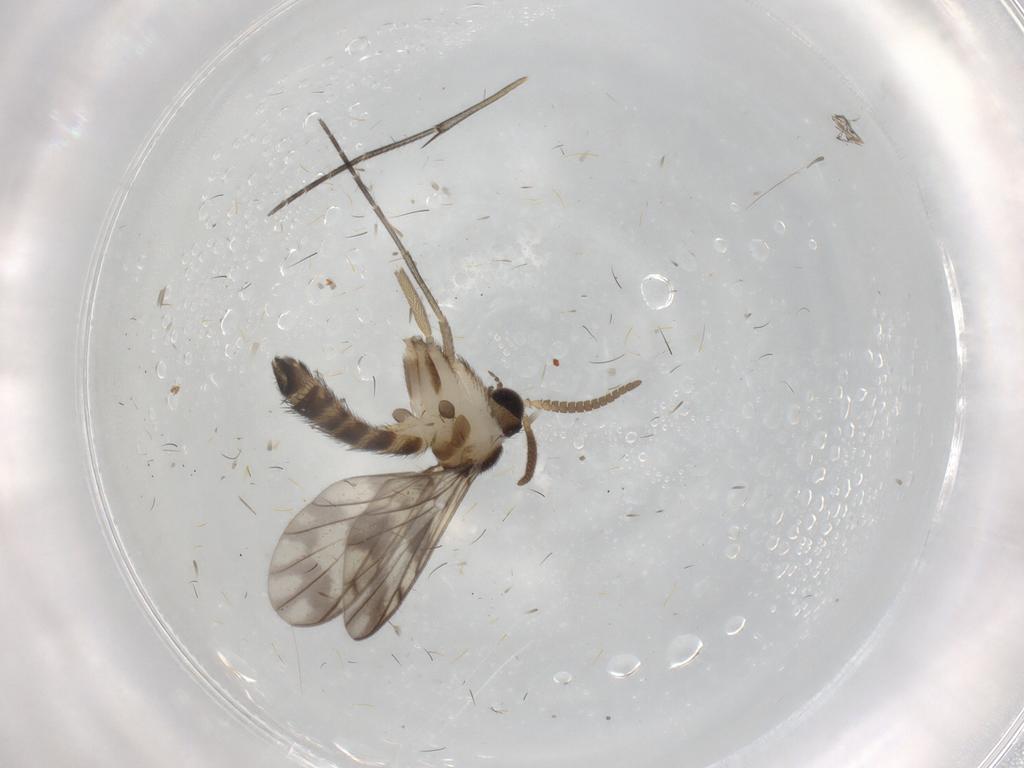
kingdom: Animalia
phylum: Arthropoda
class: Insecta
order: Diptera
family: Keroplatidae
